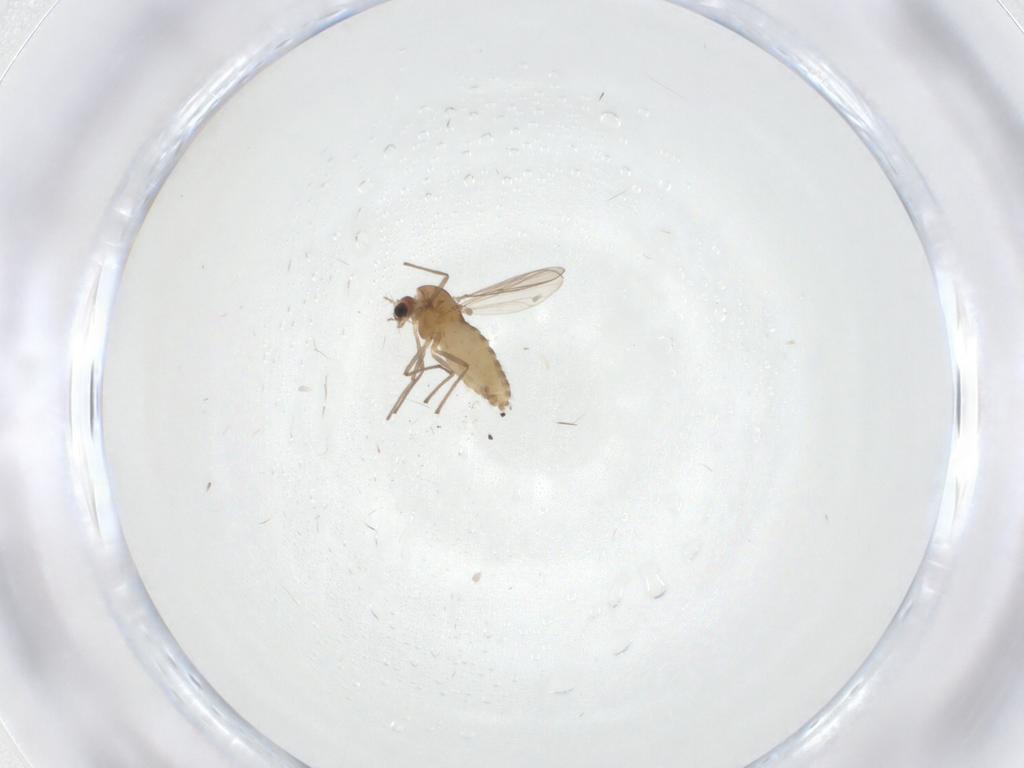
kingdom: Animalia
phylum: Arthropoda
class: Insecta
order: Diptera
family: Chironomidae
